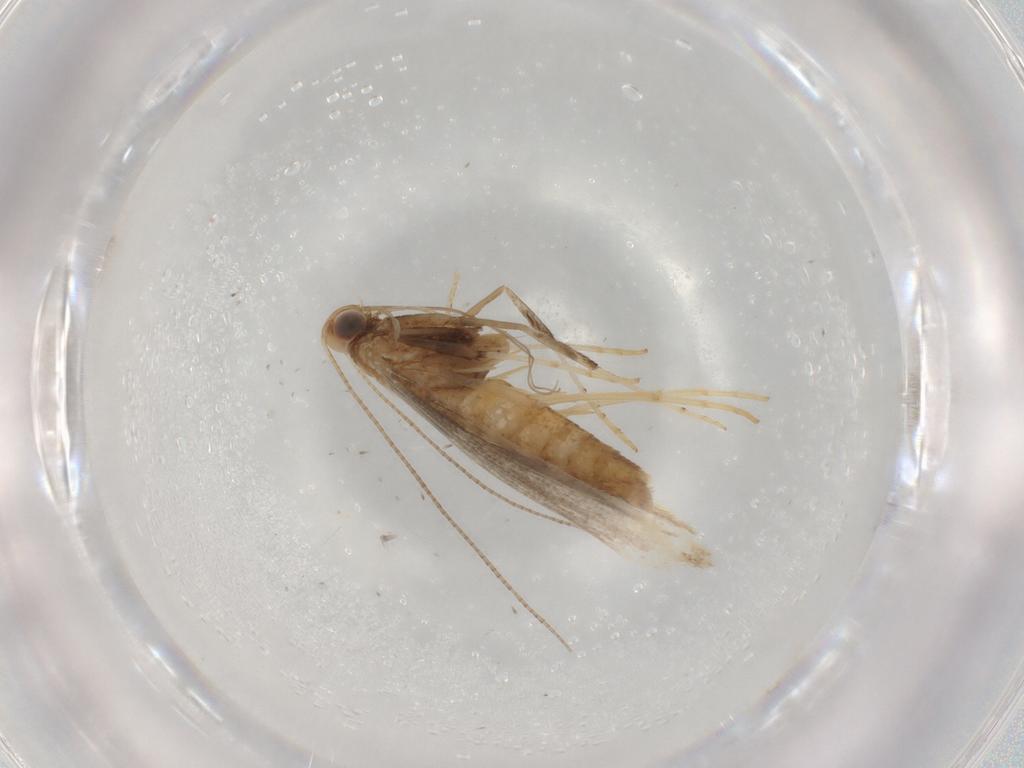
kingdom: Animalia
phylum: Arthropoda
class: Insecta
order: Lepidoptera
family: Gracillariidae
